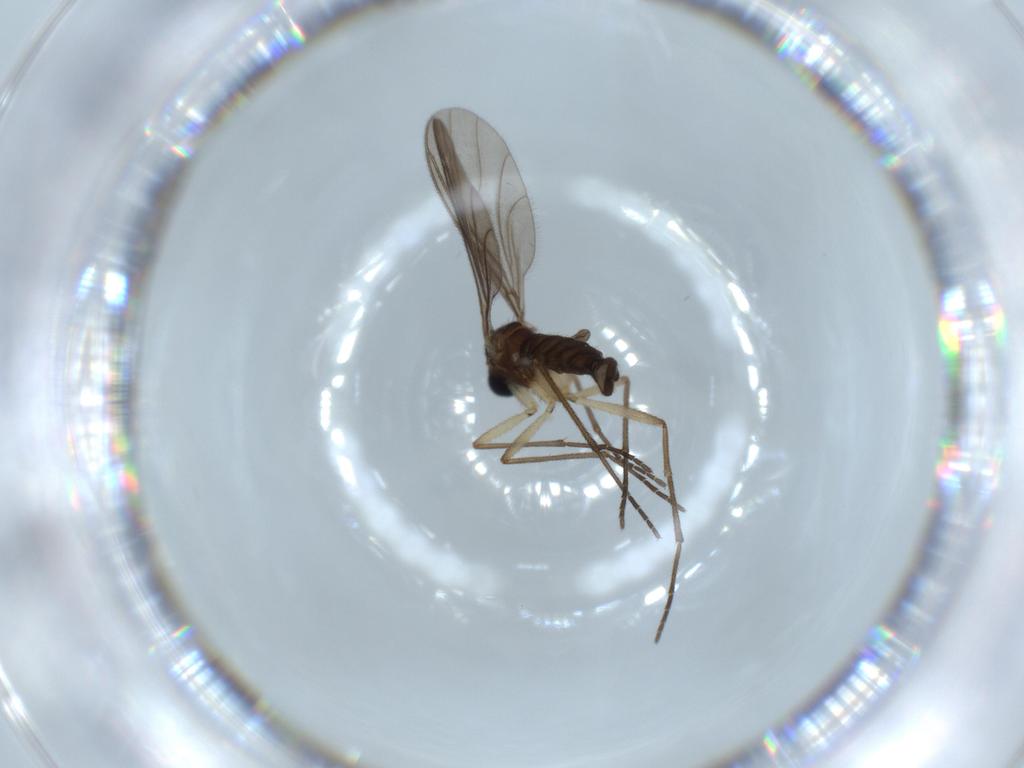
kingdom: Animalia
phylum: Arthropoda
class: Insecta
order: Diptera
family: Sciaridae
